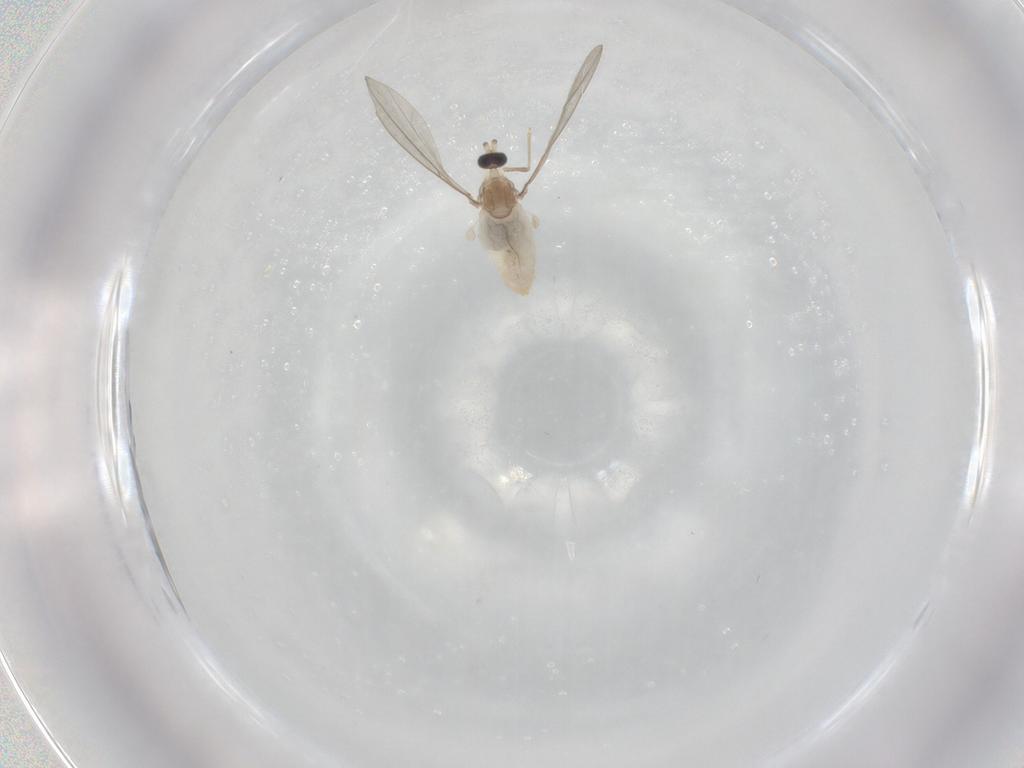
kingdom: Animalia
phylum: Arthropoda
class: Insecta
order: Diptera
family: Cecidomyiidae
